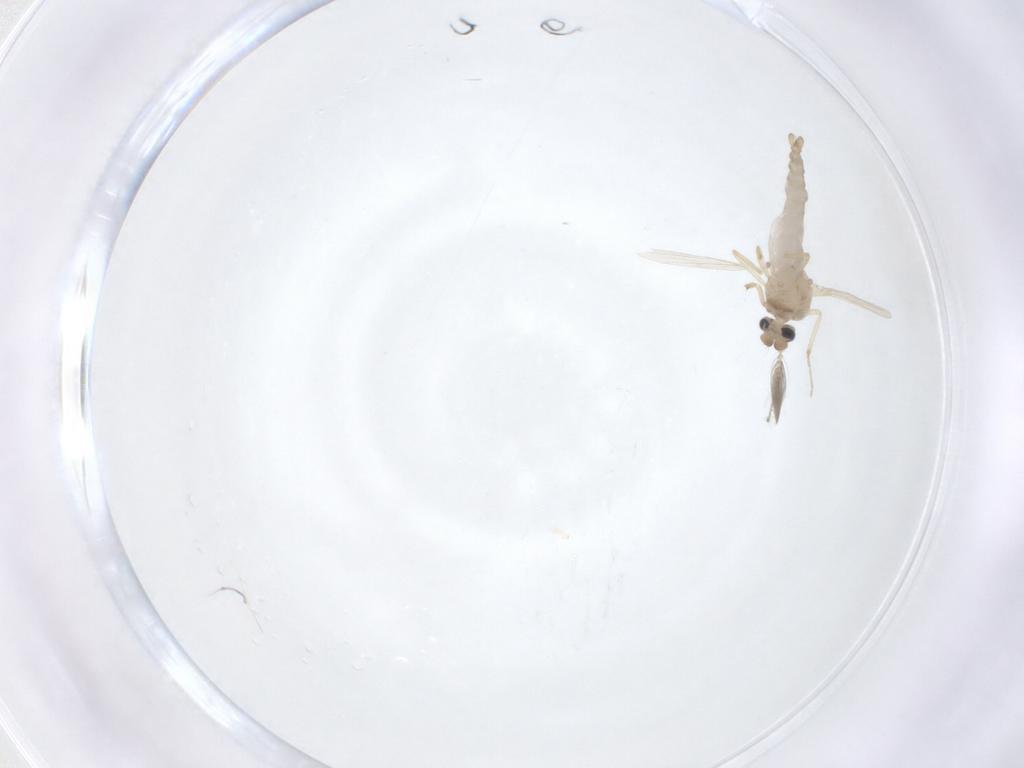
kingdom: Animalia
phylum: Arthropoda
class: Insecta
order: Diptera
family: Ceratopogonidae
